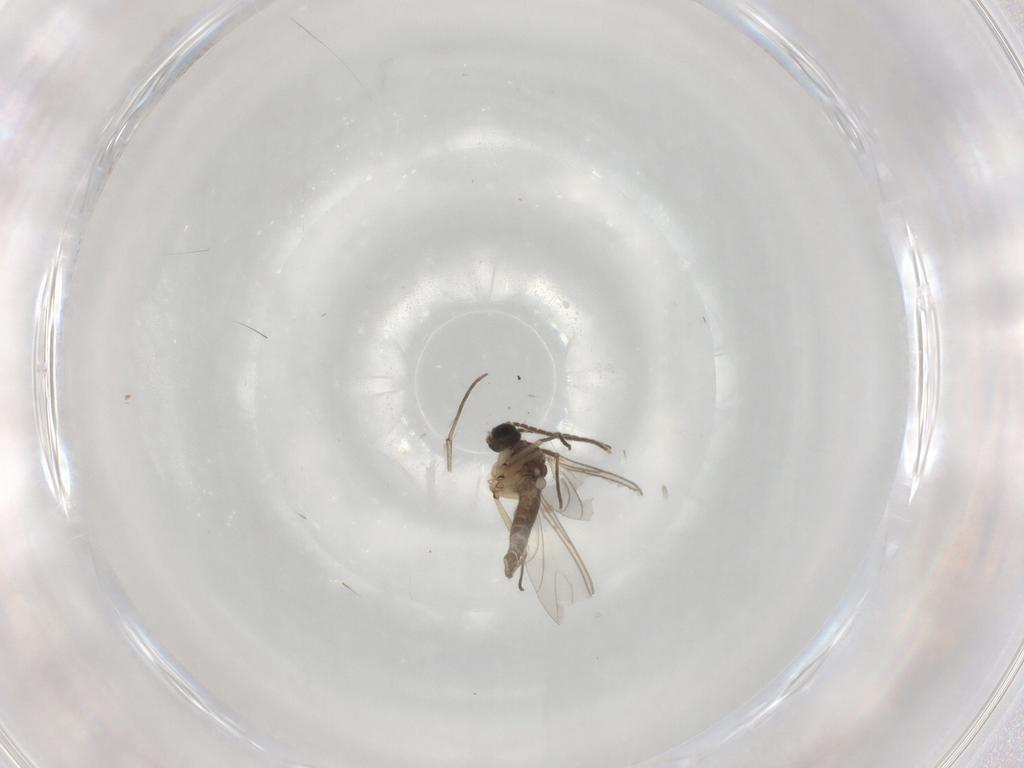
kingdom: Animalia
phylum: Arthropoda
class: Insecta
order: Diptera
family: Sciaridae
